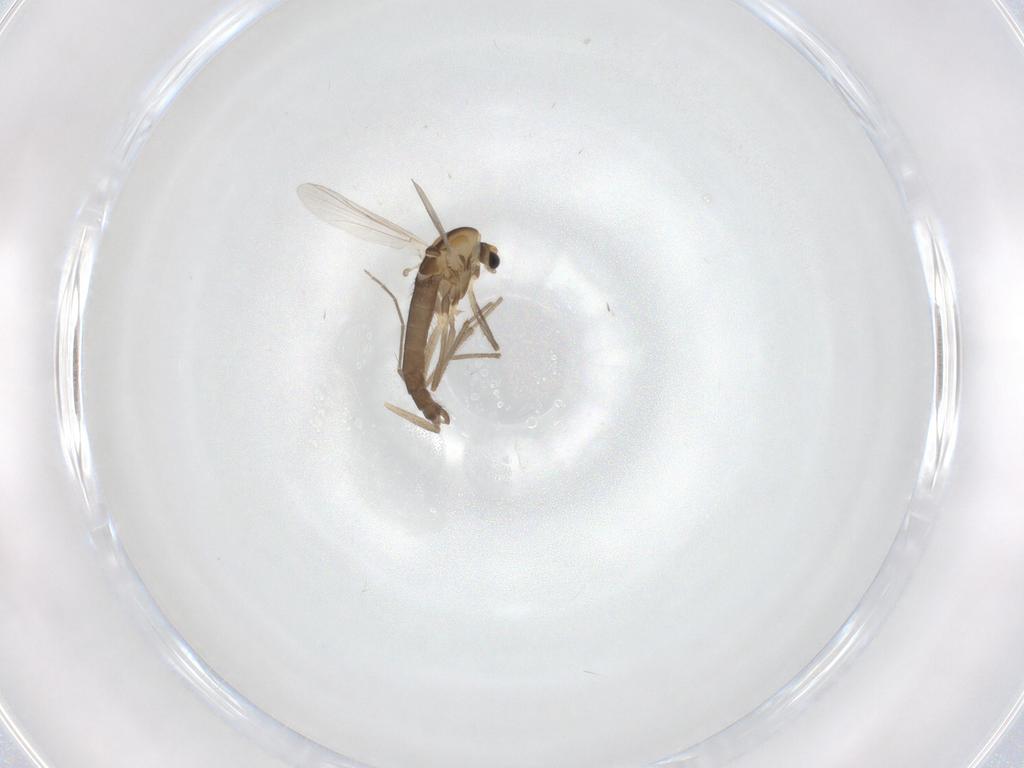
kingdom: Animalia
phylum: Arthropoda
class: Insecta
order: Diptera
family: Chironomidae
